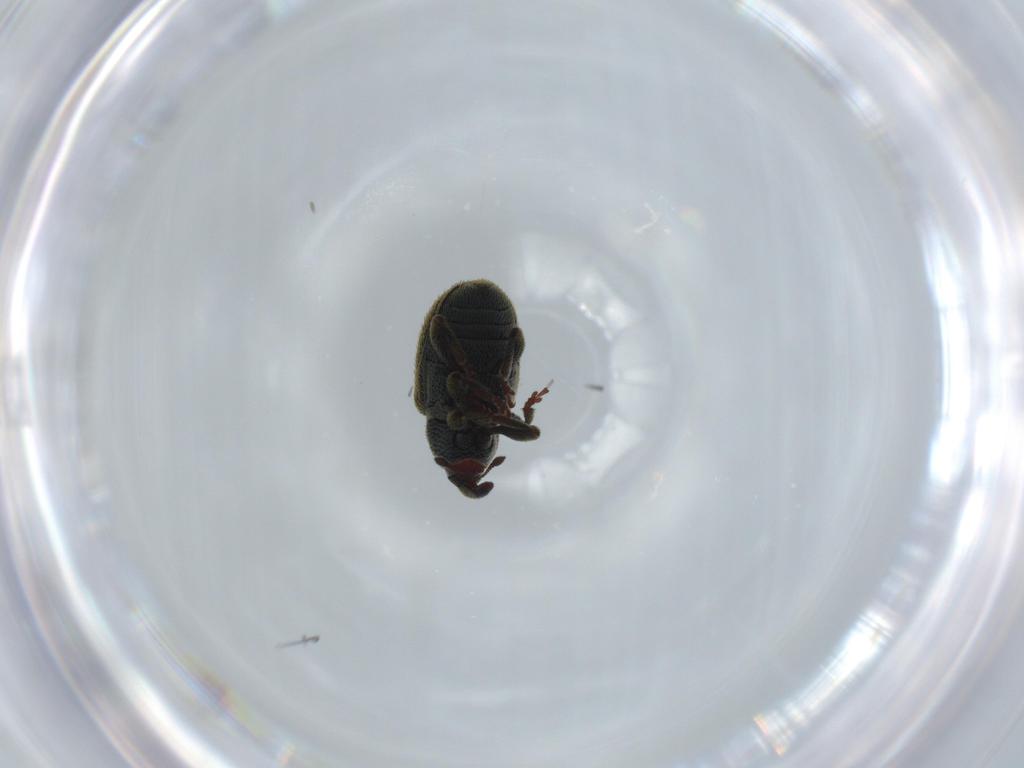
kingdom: Animalia
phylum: Arthropoda
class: Insecta
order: Coleoptera
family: Curculionidae
